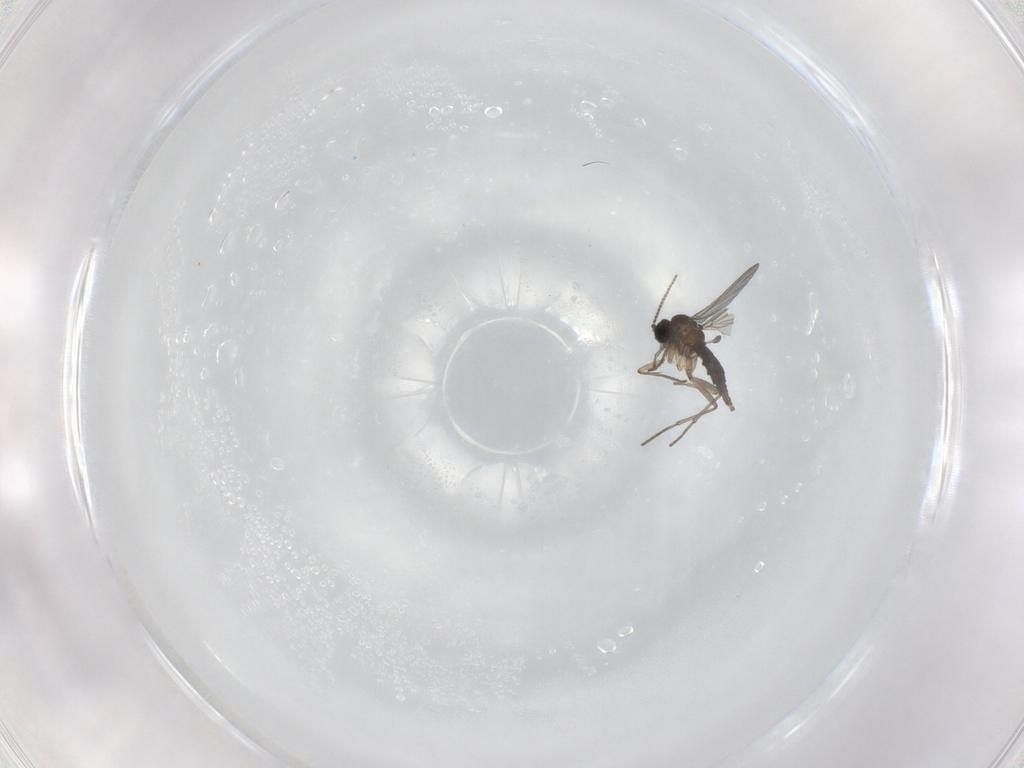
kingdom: Animalia
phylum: Arthropoda
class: Insecta
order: Diptera
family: Sciaridae
